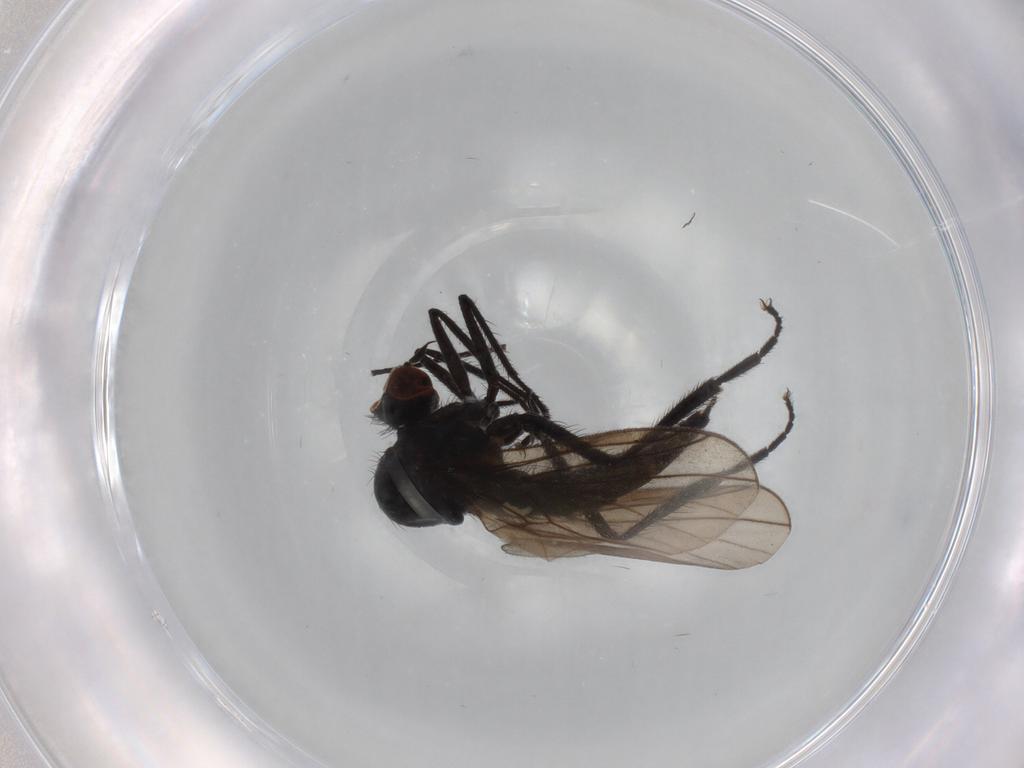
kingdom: Animalia
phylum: Arthropoda
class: Insecta
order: Diptera
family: Hybotidae
